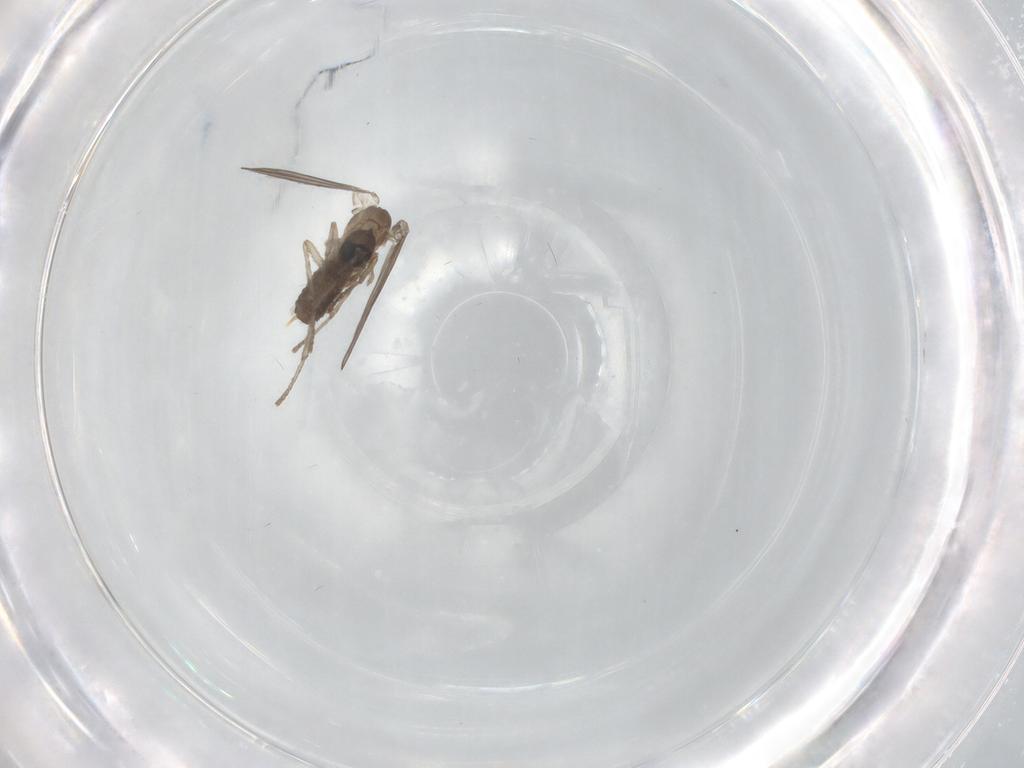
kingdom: Animalia
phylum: Arthropoda
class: Insecta
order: Diptera
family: Psychodidae
